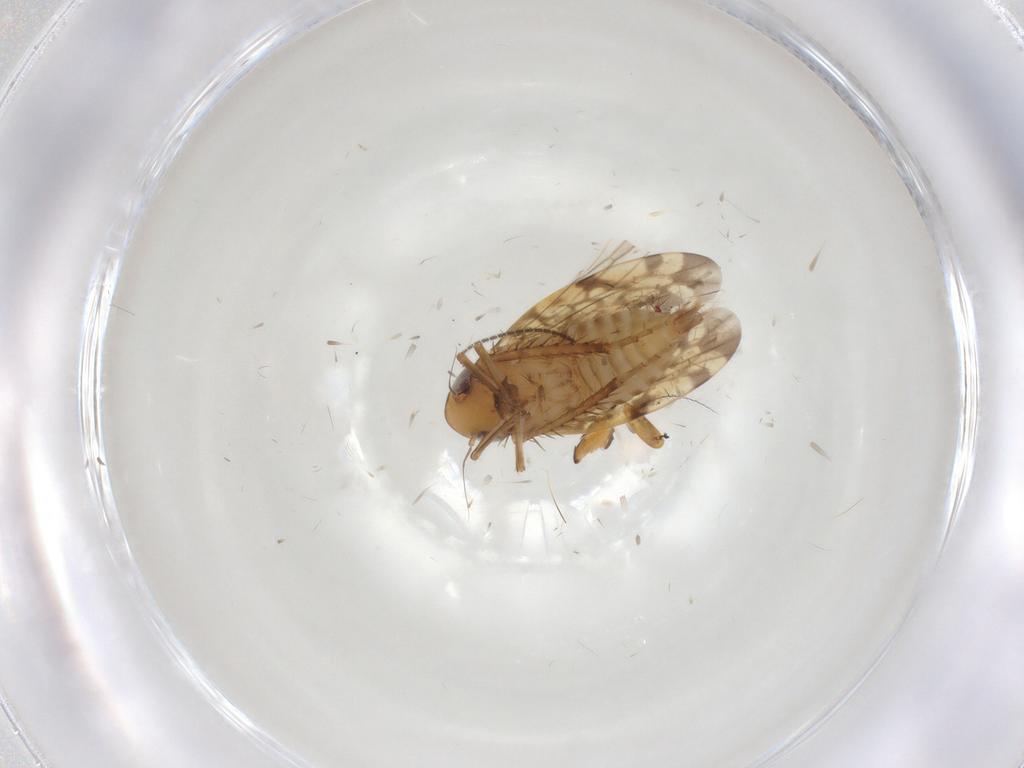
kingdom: Animalia
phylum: Arthropoda
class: Insecta
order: Hemiptera
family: Cicadellidae
